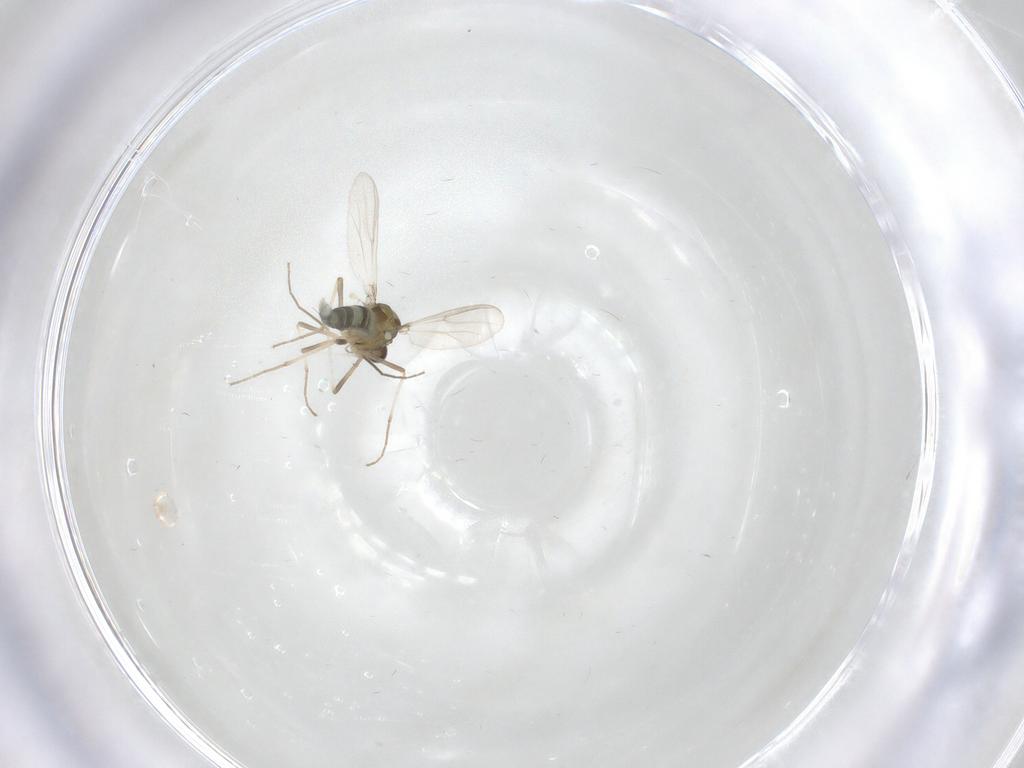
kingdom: Animalia
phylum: Arthropoda
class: Insecta
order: Diptera
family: Chironomidae
